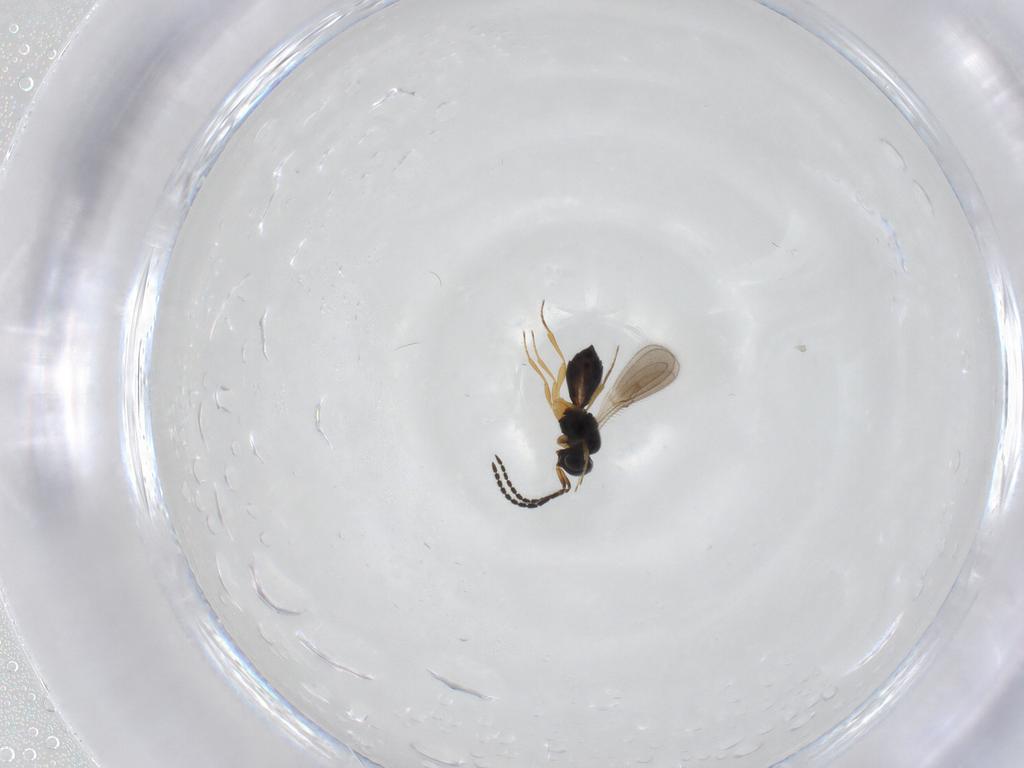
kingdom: Animalia
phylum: Arthropoda
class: Insecta
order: Hymenoptera
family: Scelionidae
